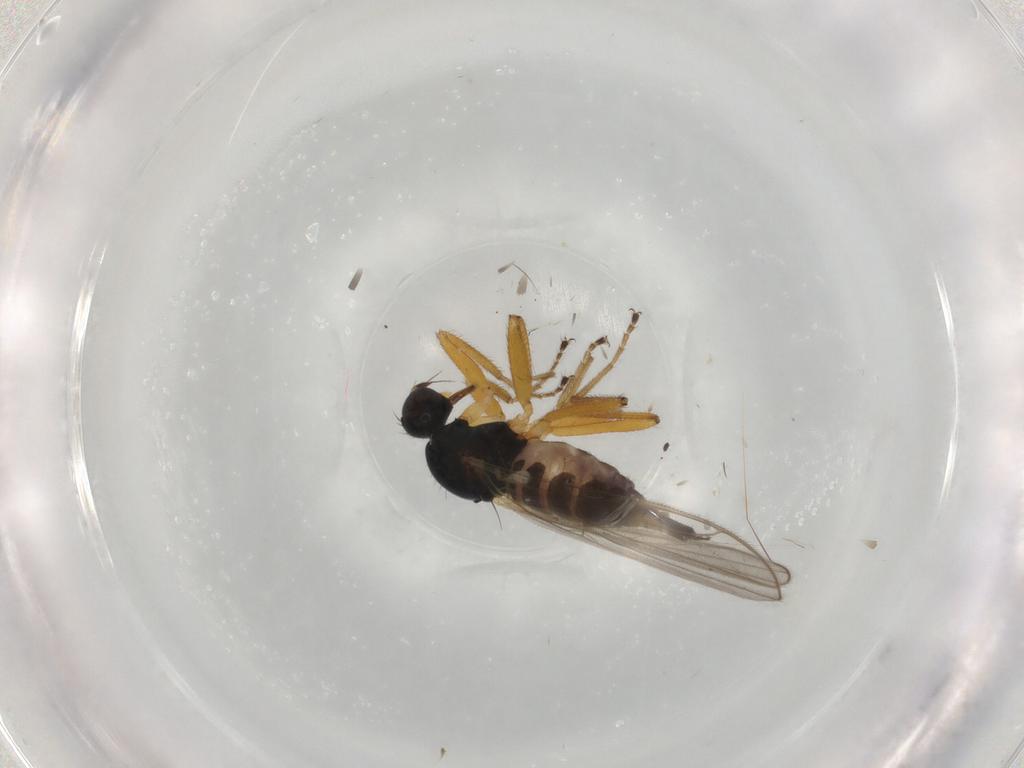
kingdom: Animalia
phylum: Arthropoda
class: Insecta
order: Diptera
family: Hybotidae
